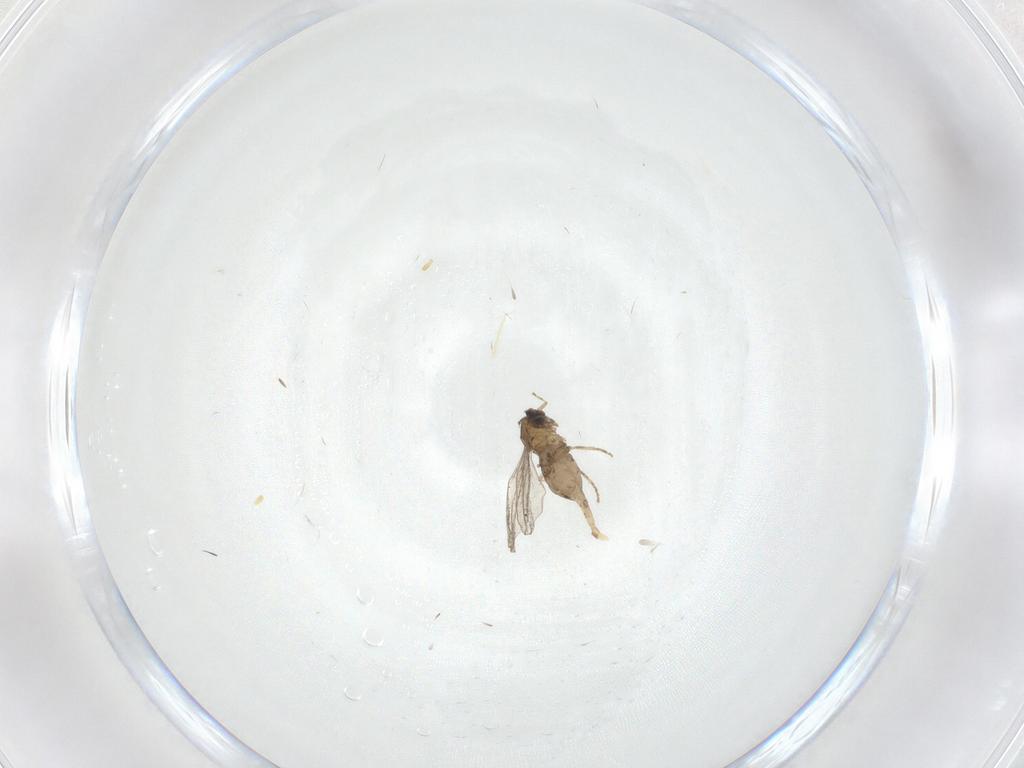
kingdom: Animalia
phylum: Arthropoda
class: Insecta
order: Diptera
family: Cecidomyiidae
